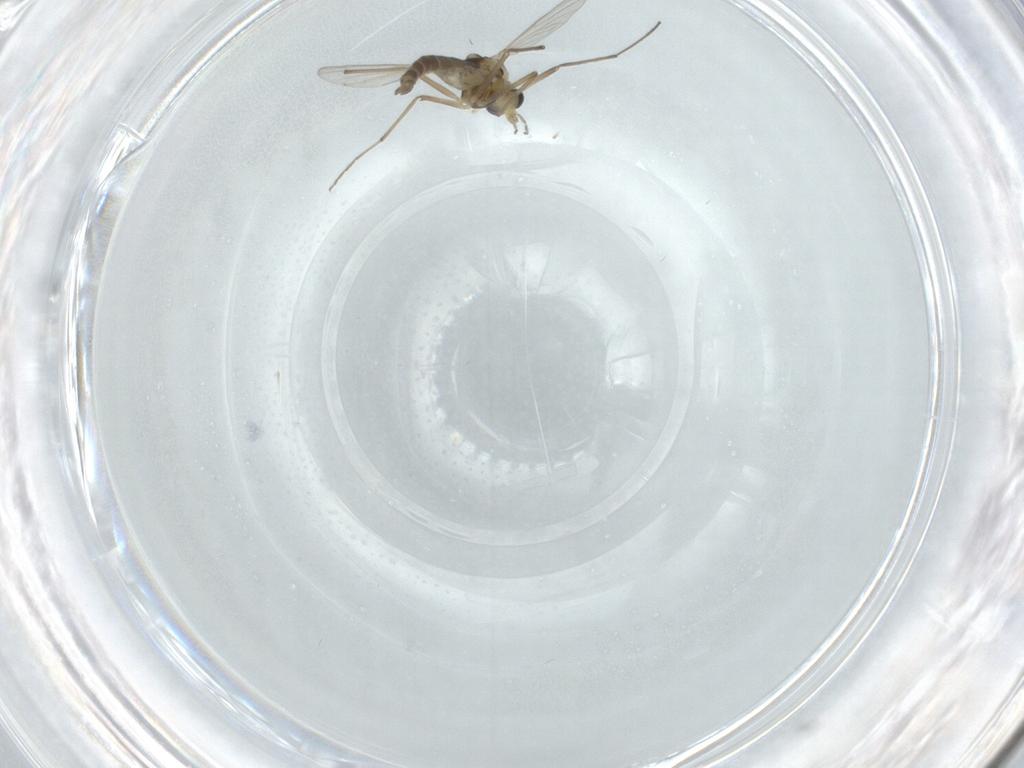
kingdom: Animalia
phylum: Arthropoda
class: Insecta
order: Diptera
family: Chironomidae
